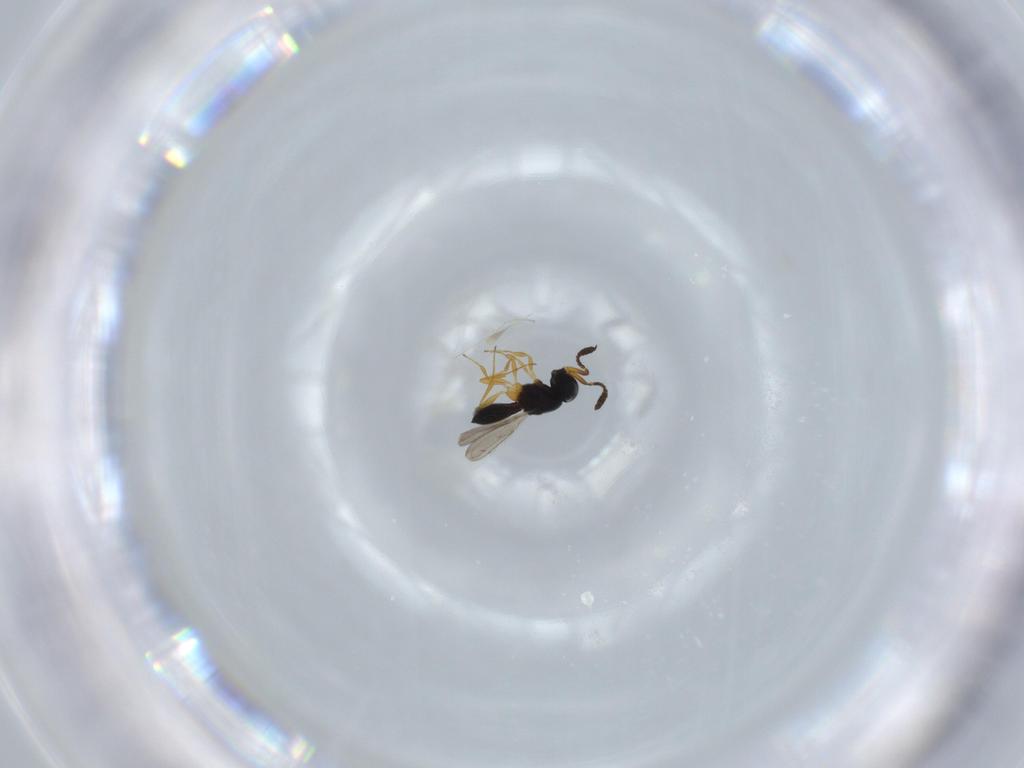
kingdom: Animalia
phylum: Arthropoda
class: Insecta
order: Hymenoptera
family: Scelionidae
